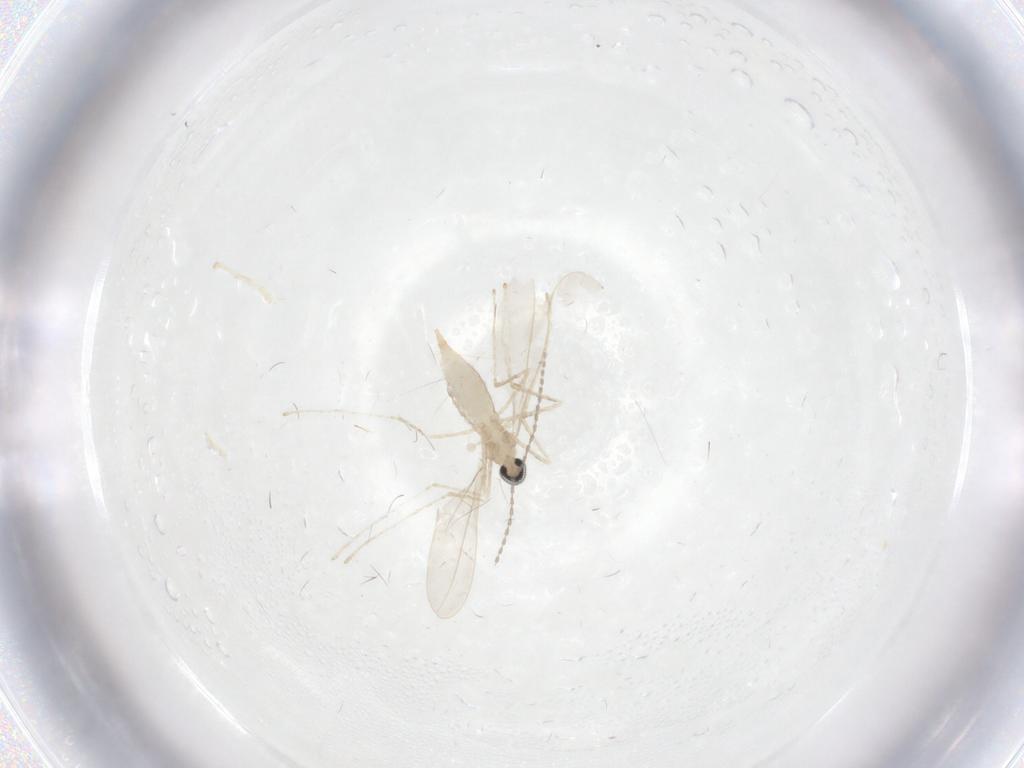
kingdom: Animalia
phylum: Arthropoda
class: Insecta
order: Diptera
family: Milichiidae
